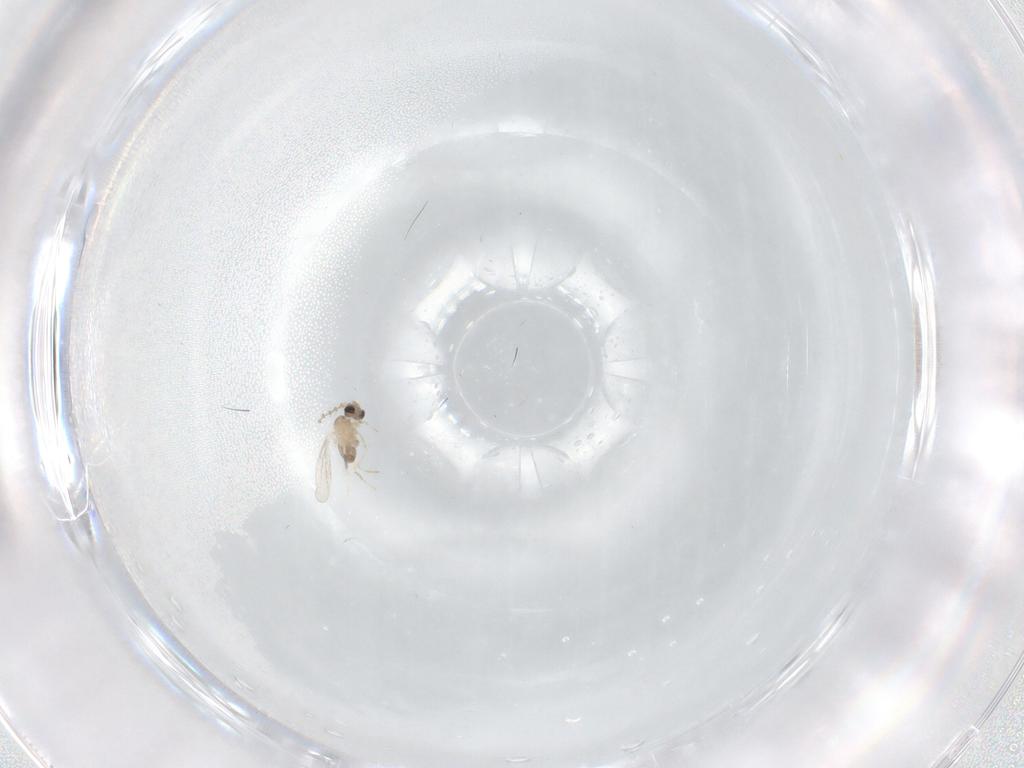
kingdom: Animalia
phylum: Arthropoda
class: Insecta
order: Diptera
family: Cecidomyiidae
